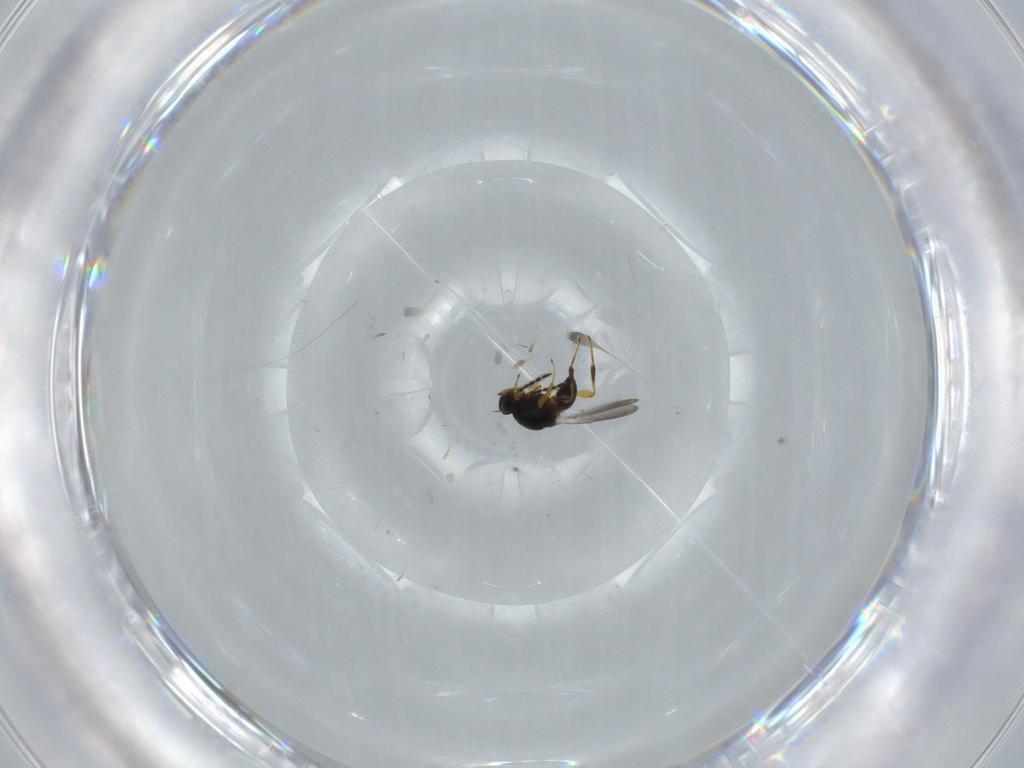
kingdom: Animalia
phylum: Arthropoda
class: Insecta
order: Hymenoptera
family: Platygastridae
